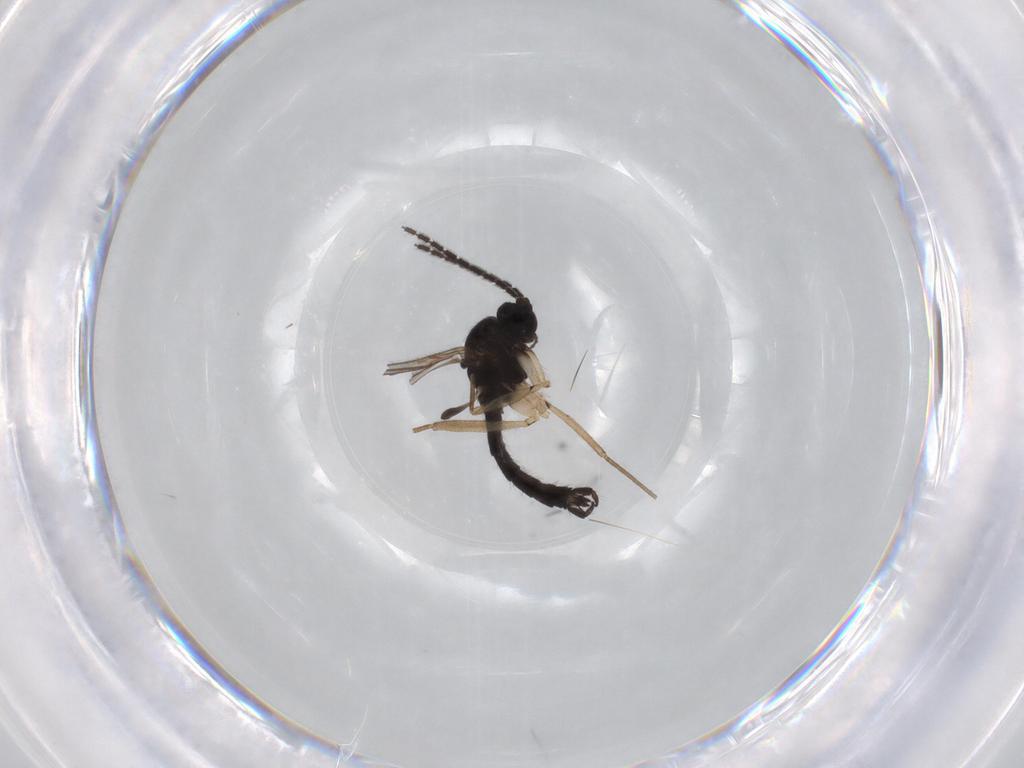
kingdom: Animalia
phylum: Arthropoda
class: Insecta
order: Diptera
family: Sciaridae
